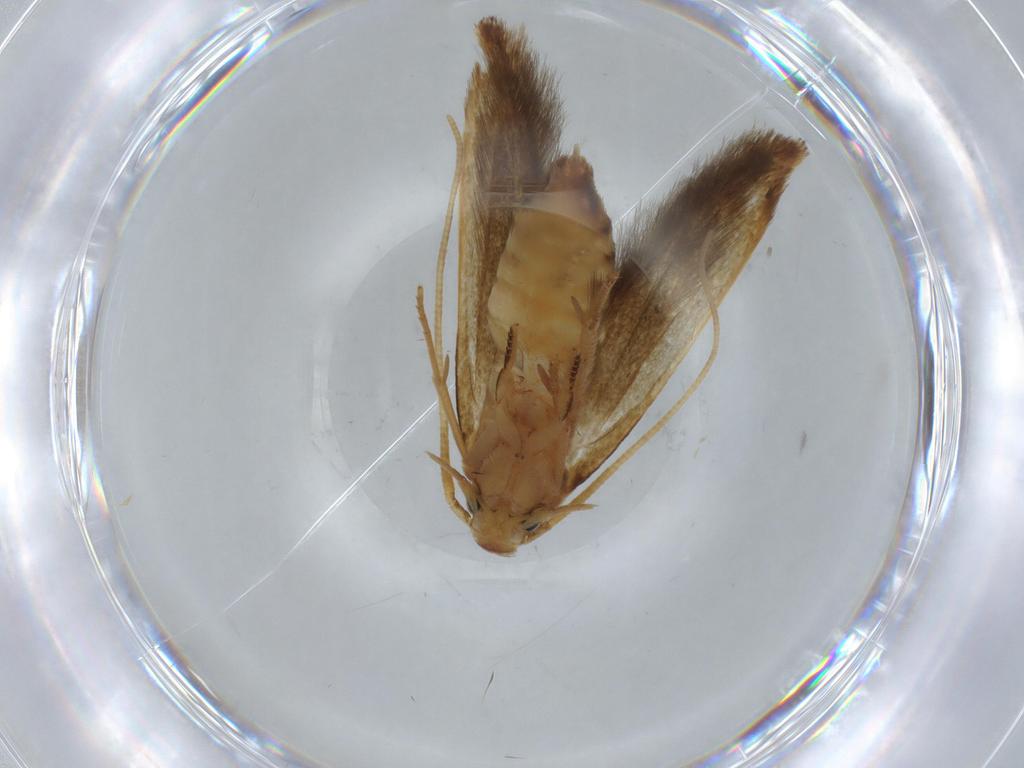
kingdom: Animalia
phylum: Arthropoda
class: Insecta
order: Lepidoptera
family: Tineidae
